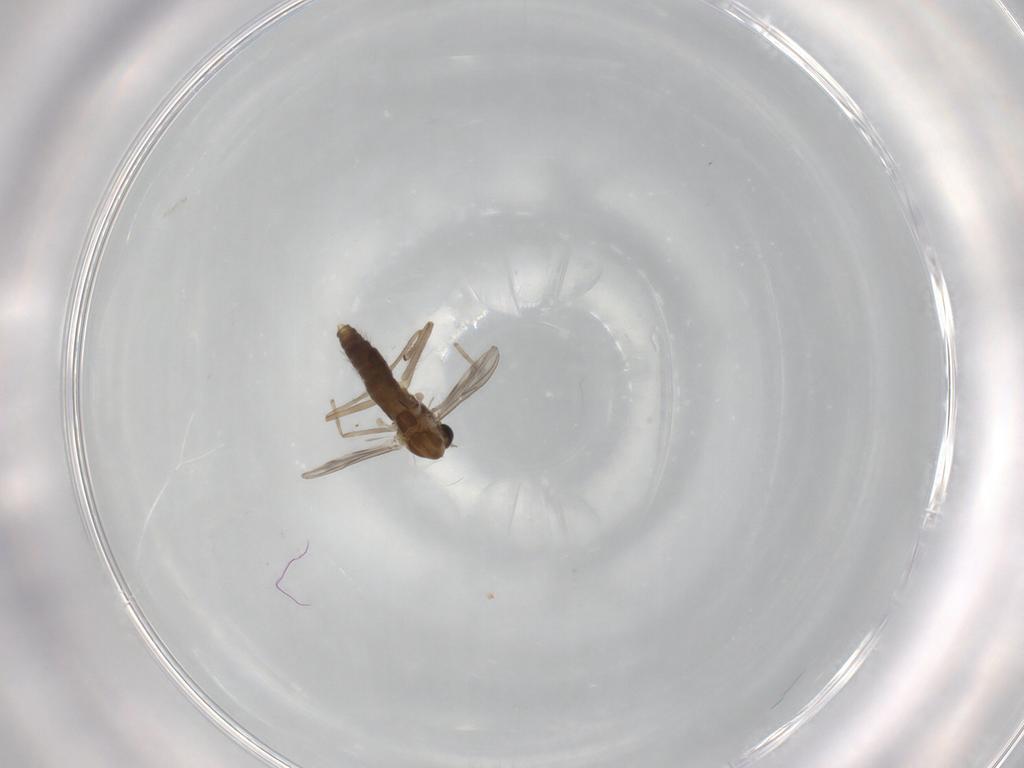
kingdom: Animalia
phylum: Arthropoda
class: Insecta
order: Diptera
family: Chironomidae
